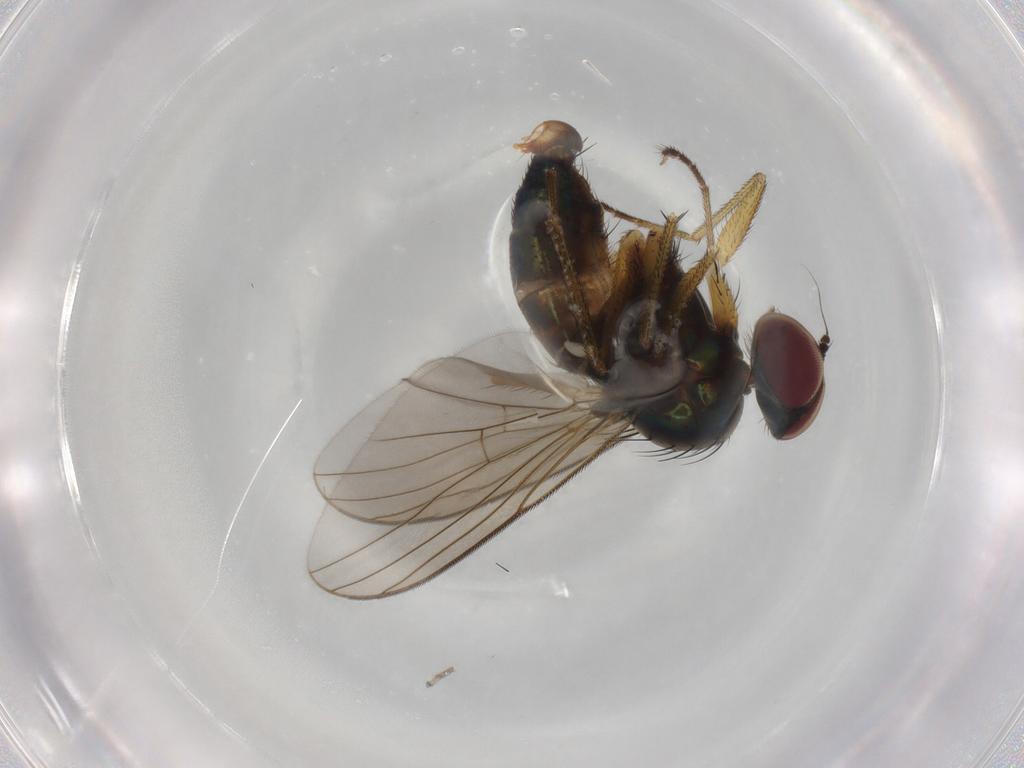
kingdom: Animalia
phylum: Arthropoda
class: Insecta
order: Diptera
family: Dolichopodidae
